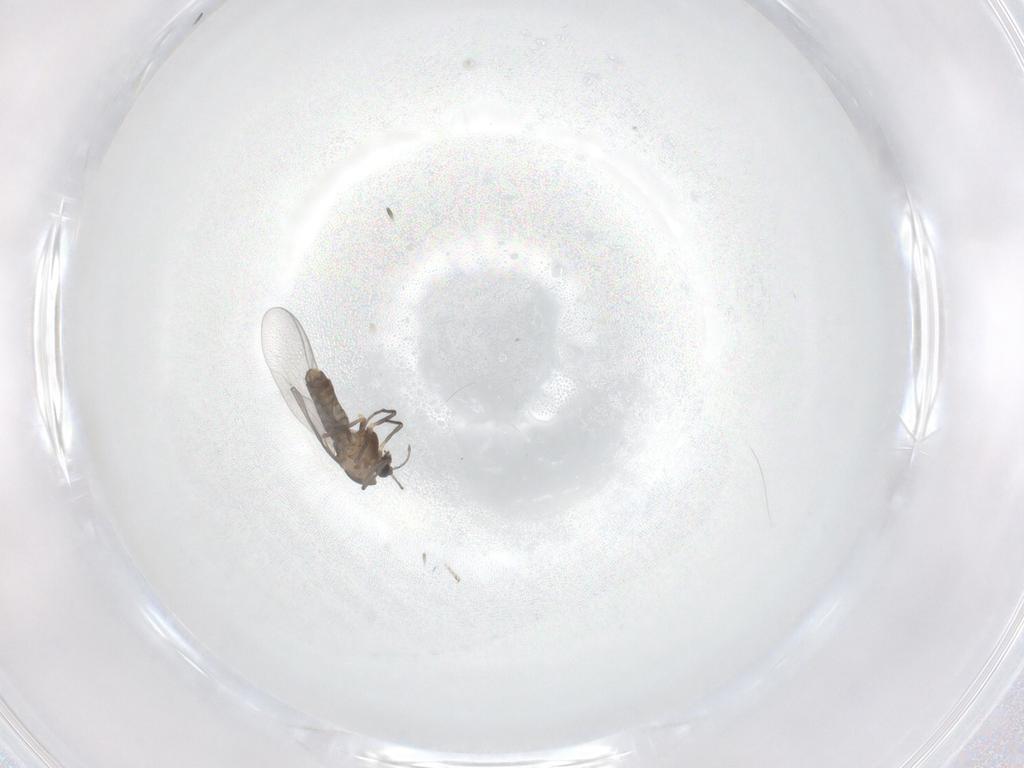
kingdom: Animalia
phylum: Arthropoda
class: Insecta
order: Diptera
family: Chironomidae
